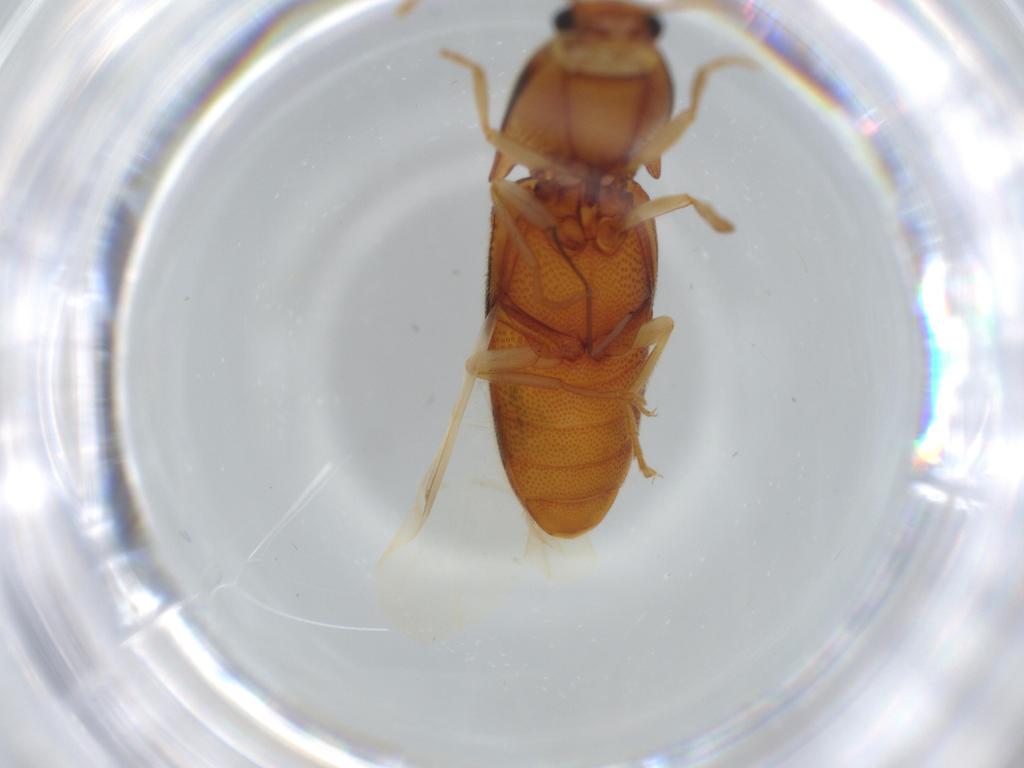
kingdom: Animalia
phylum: Arthropoda
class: Insecta
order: Coleoptera
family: Elateridae
